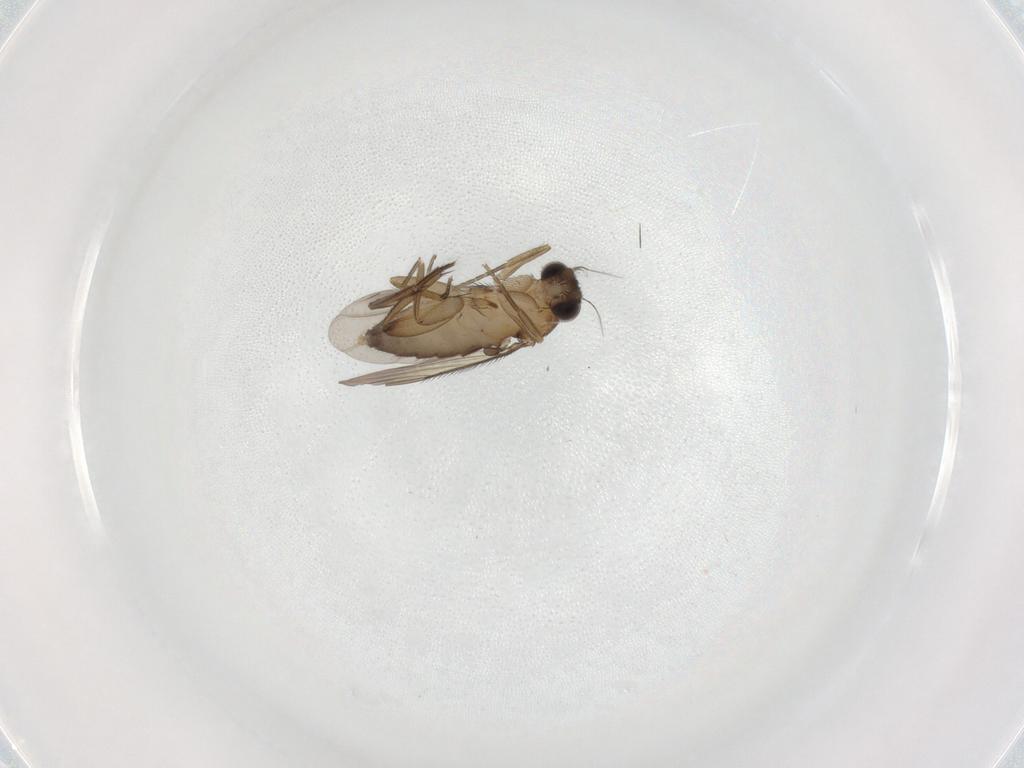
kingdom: Animalia
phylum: Arthropoda
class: Insecta
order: Diptera
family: Phoridae
